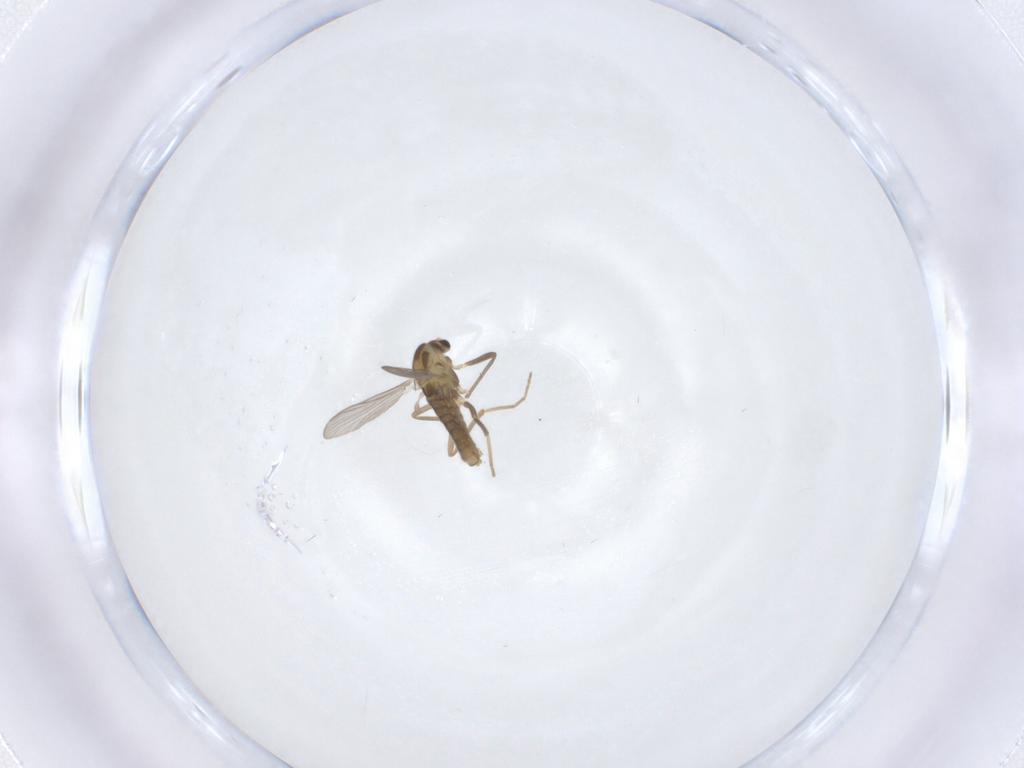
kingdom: Animalia
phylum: Arthropoda
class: Insecta
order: Diptera
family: Chironomidae
